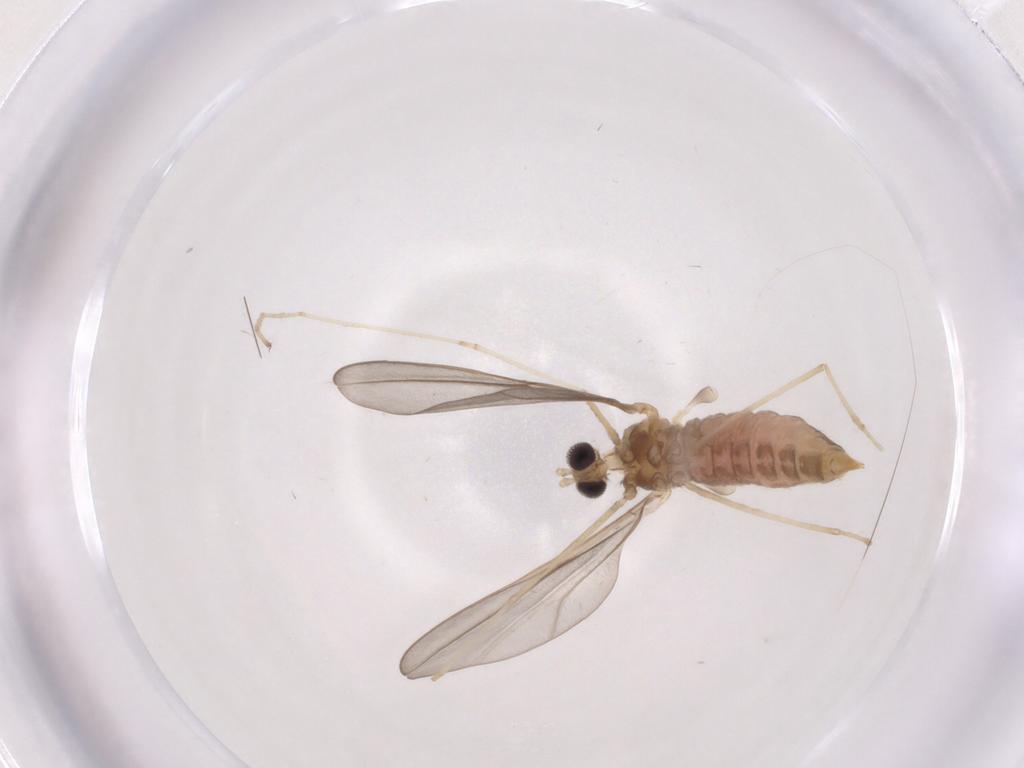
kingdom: Animalia
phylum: Arthropoda
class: Insecta
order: Diptera
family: Cecidomyiidae
